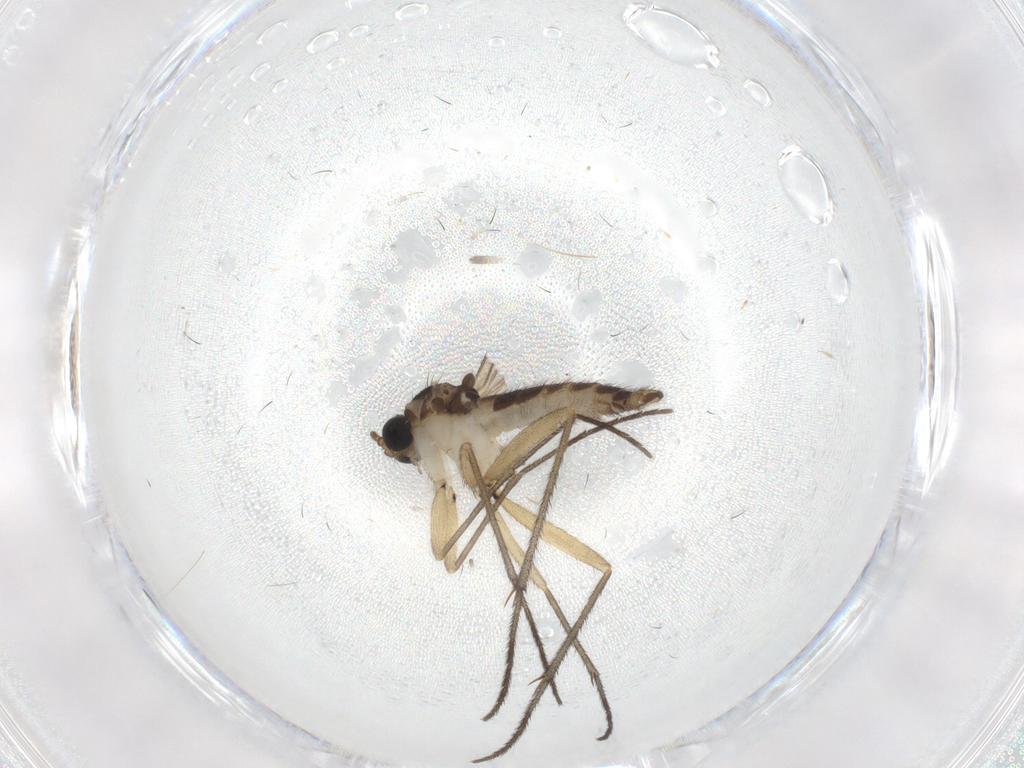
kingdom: Animalia
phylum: Arthropoda
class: Insecta
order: Diptera
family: Sciaridae
